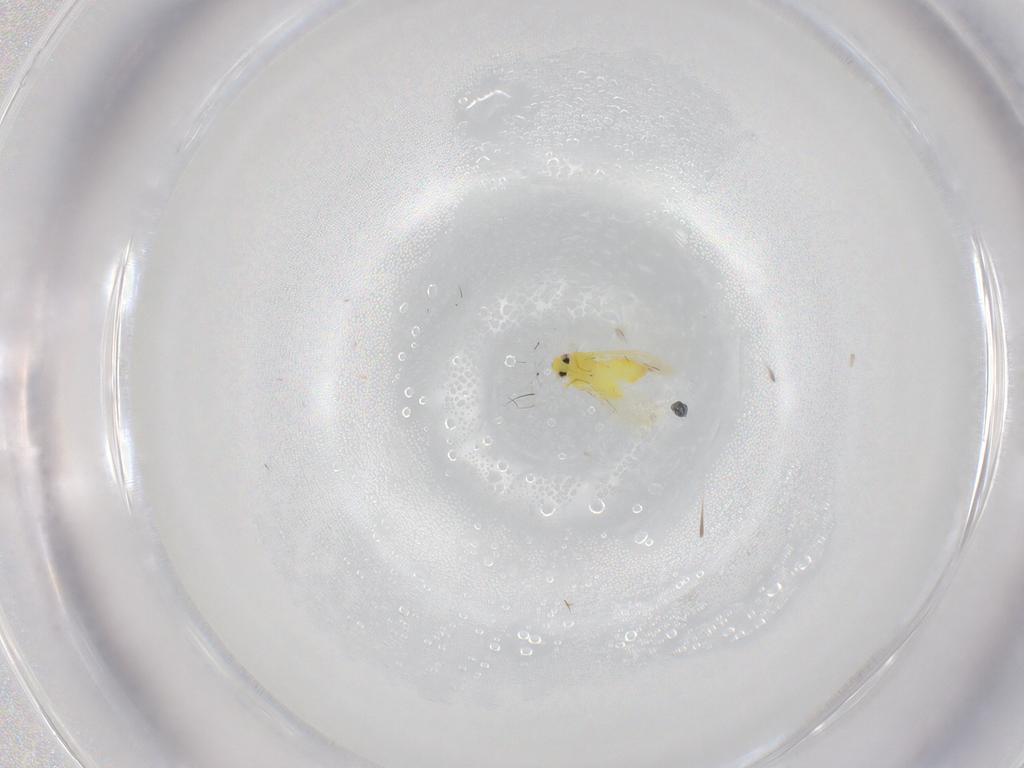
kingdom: Animalia
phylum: Arthropoda
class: Insecta
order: Hemiptera
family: Aleyrodidae
